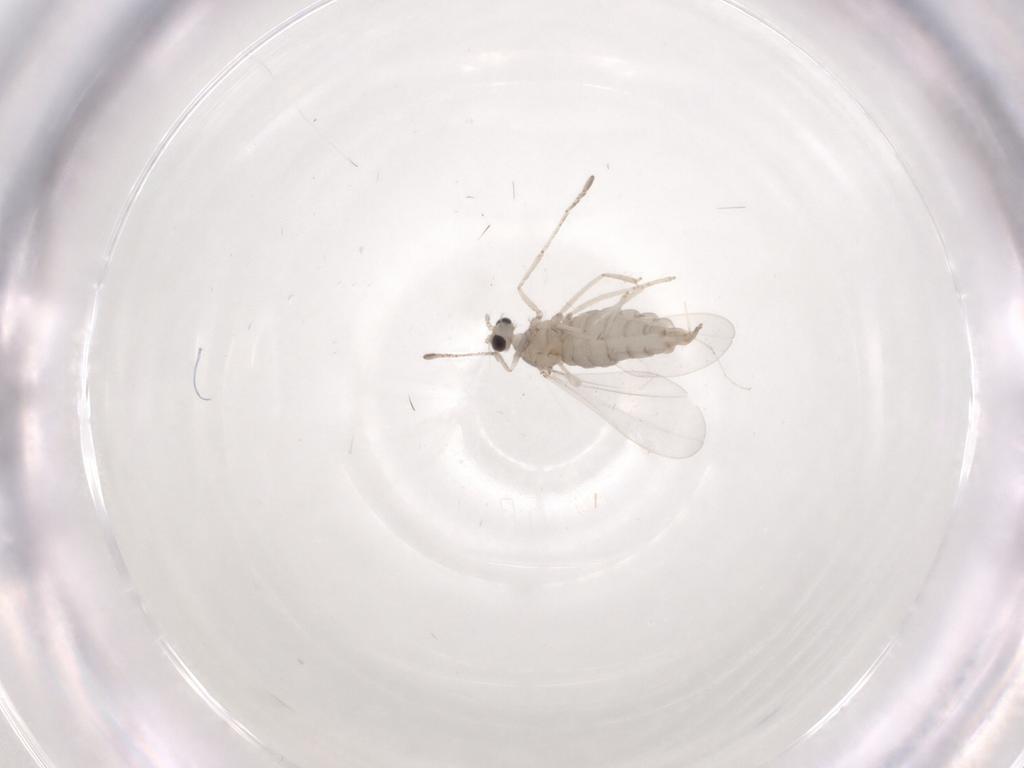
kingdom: Animalia
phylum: Arthropoda
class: Insecta
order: Diptera
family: Cecidomyiidae
